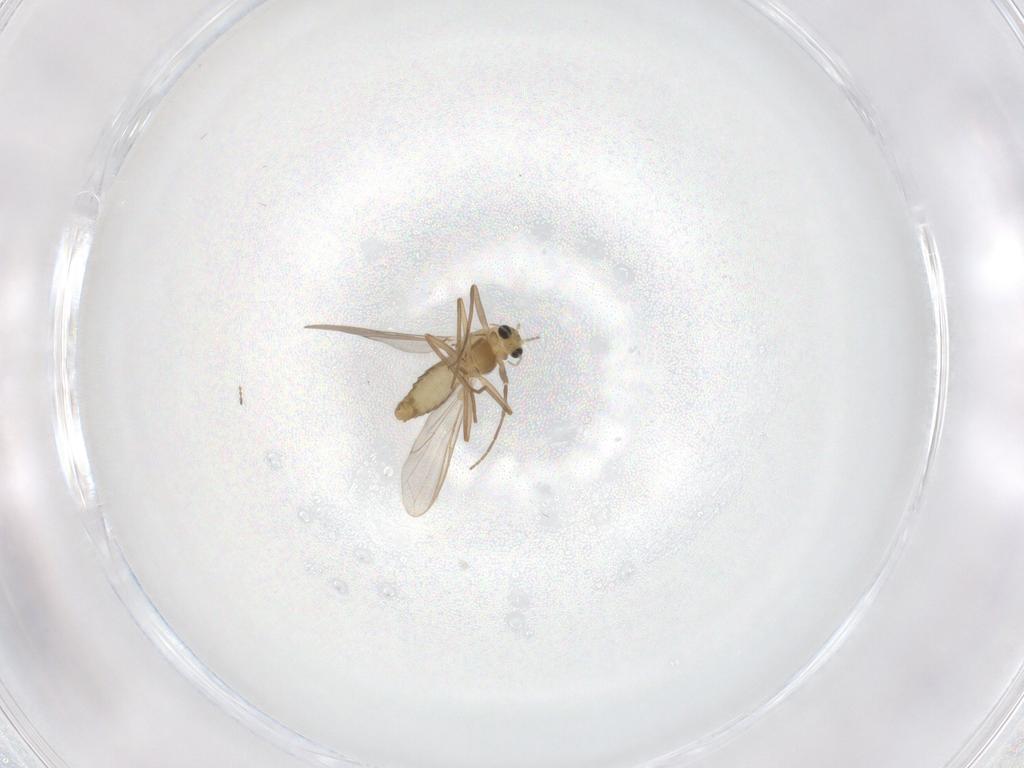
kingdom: Animalia
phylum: Arthropoda
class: Insecta
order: Diptera
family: Chironomidae
